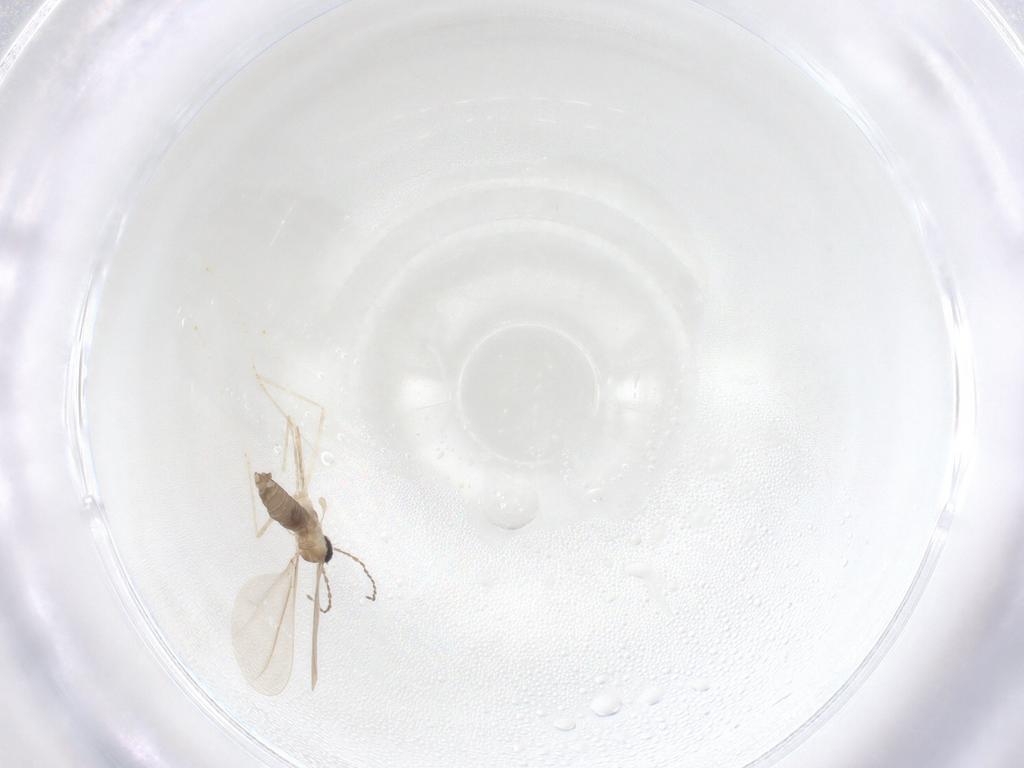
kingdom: Animalia
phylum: Arthropoda
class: Insecta
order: Diptera
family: Cecidomyiidae
